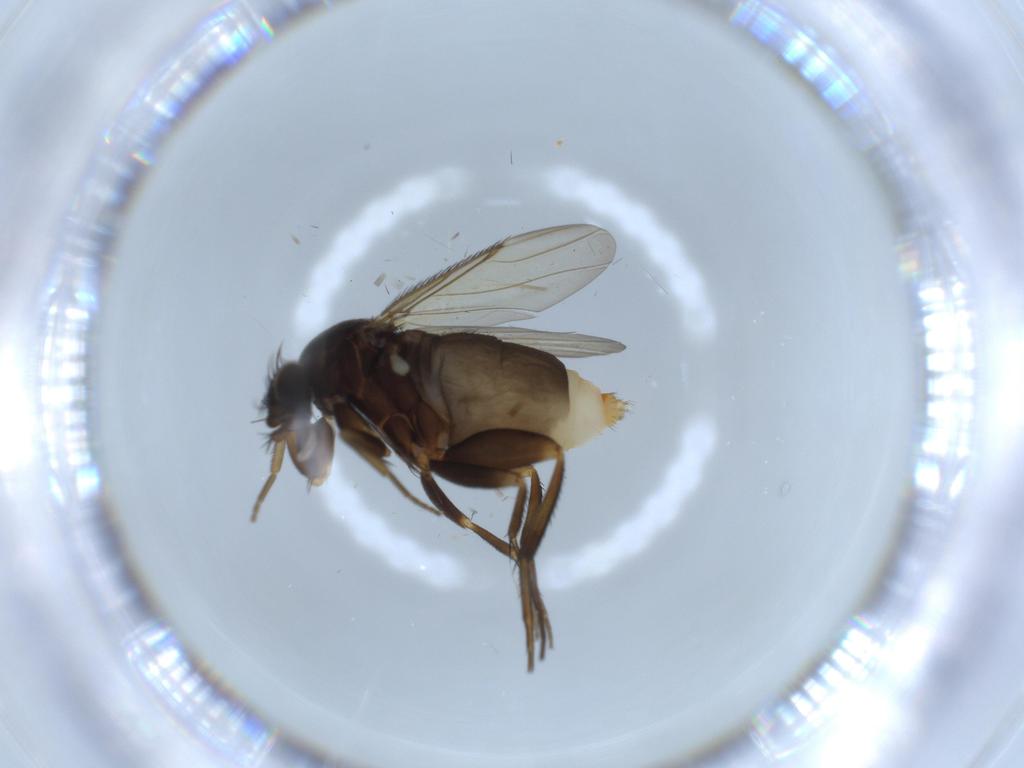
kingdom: Animalia
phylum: Arthropoda
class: Insecta
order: Diptera
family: Phoridae
